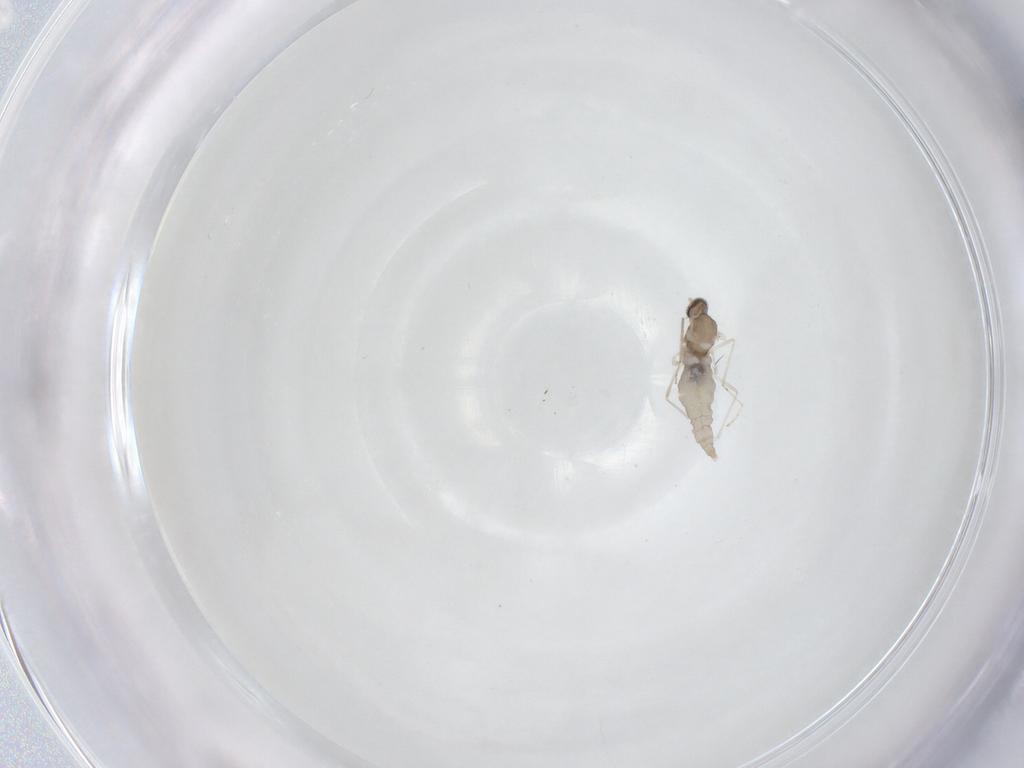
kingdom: Animalia
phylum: Arthropoda
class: Insecta
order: Diptera
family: Cecidomyiidae
